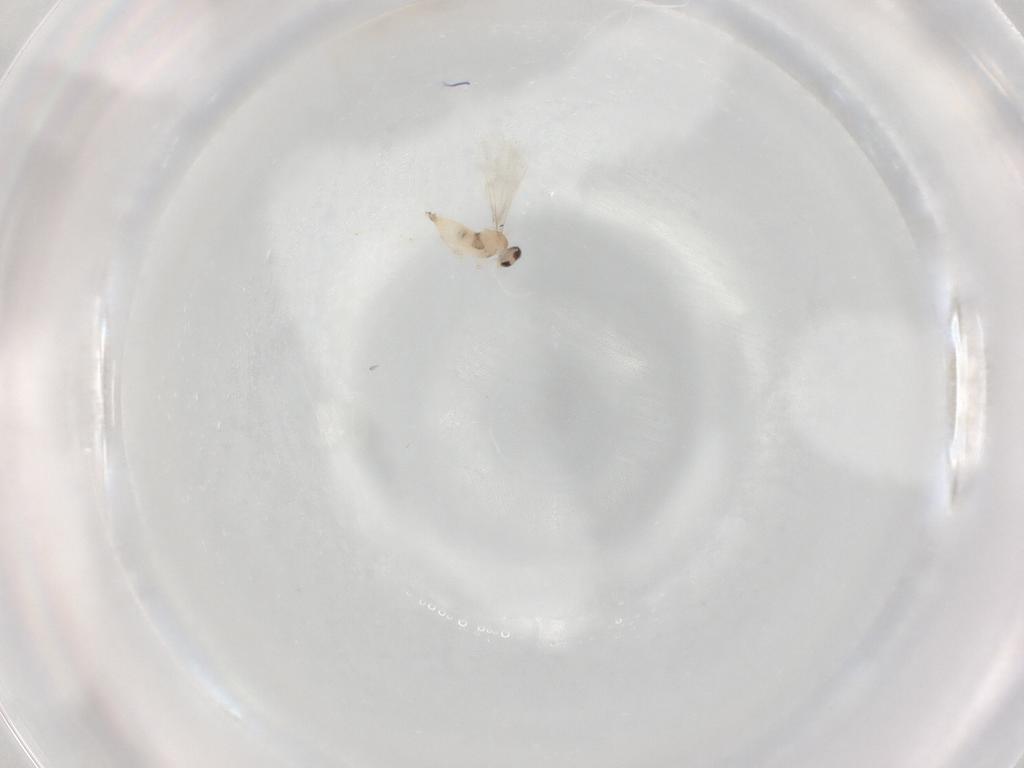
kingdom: Animalia
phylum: Arthropoda
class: Insecta
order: Diptera
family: Cecidomyiidae
